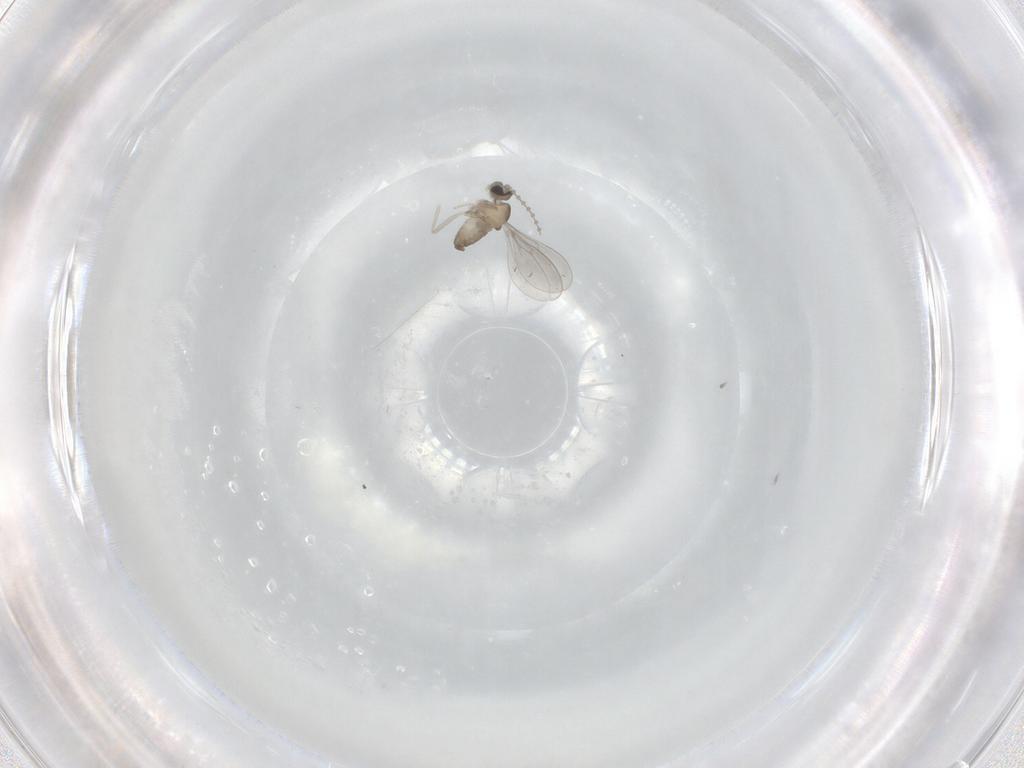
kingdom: Animalia
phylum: Arthropoda
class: Insecta
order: Diptera
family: Cecidomyiidae
